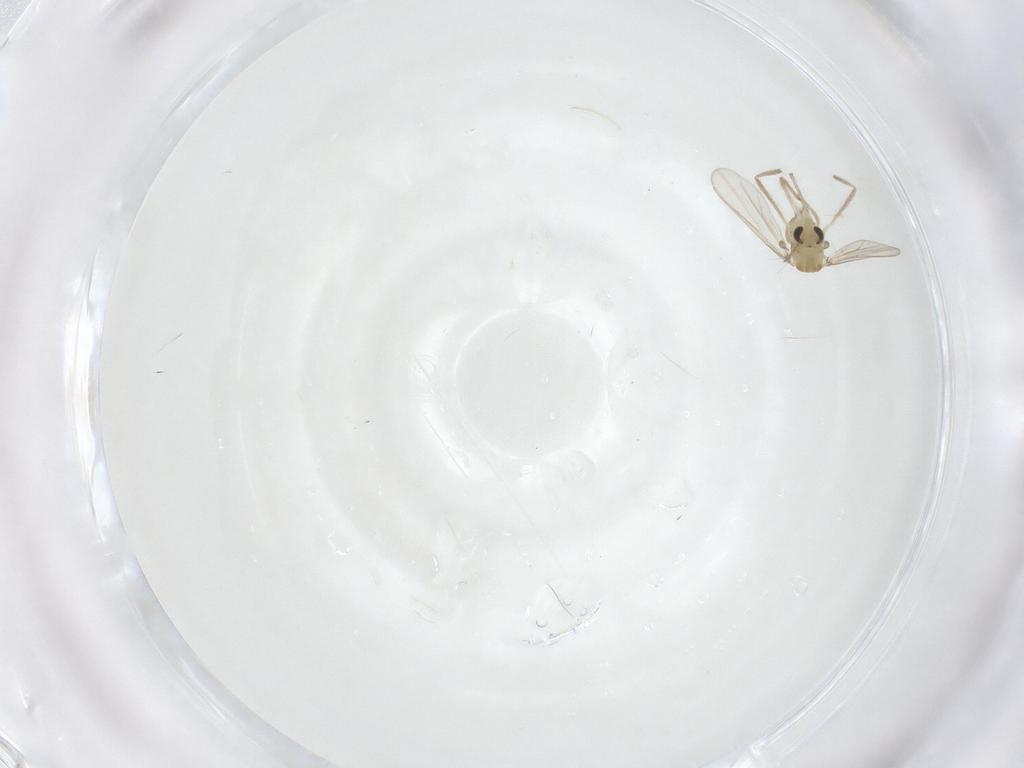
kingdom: Animalia
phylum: Arthropoda
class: Insecta
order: Diptera
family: Chironomidae
